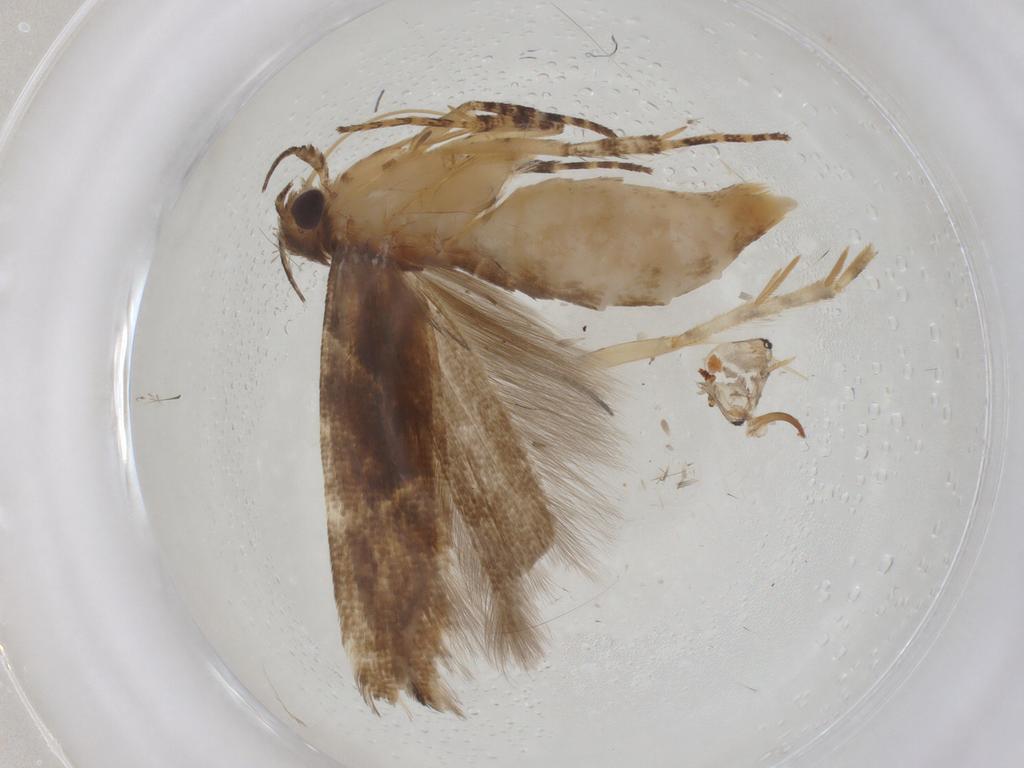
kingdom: Animalia
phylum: Arthropoda
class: Insecta
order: Lepidoptera
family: Gelechiidae
